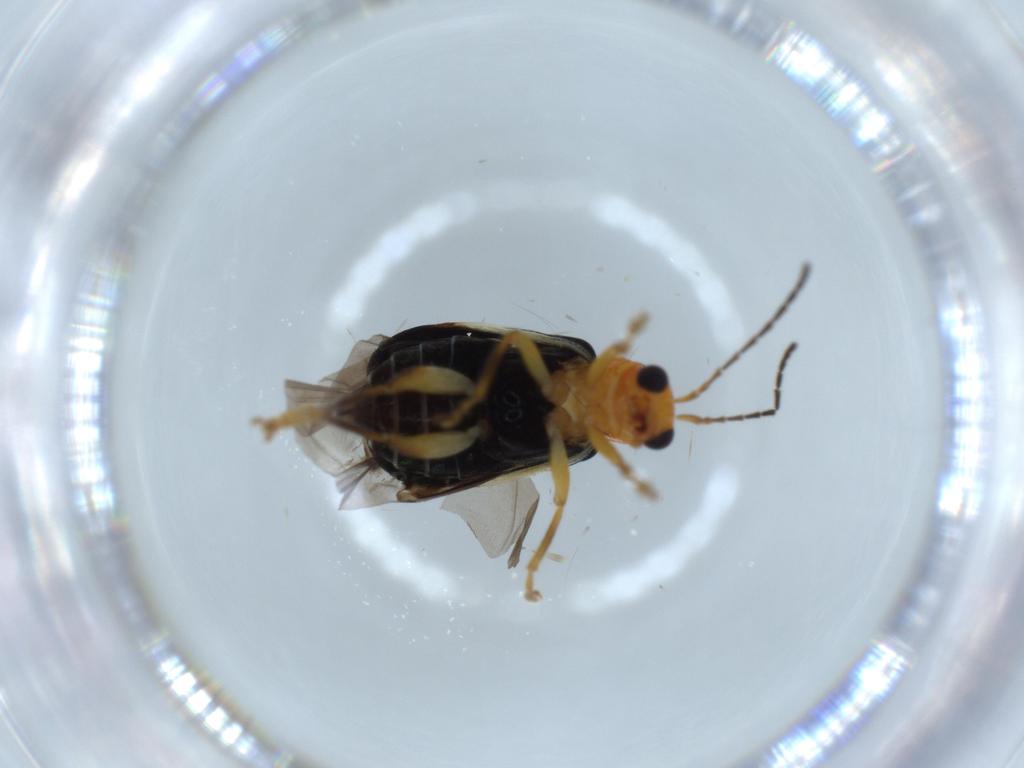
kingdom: Animalia
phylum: Arthropoda
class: Insecta
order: Coleoptera
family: Chrysomelidae
